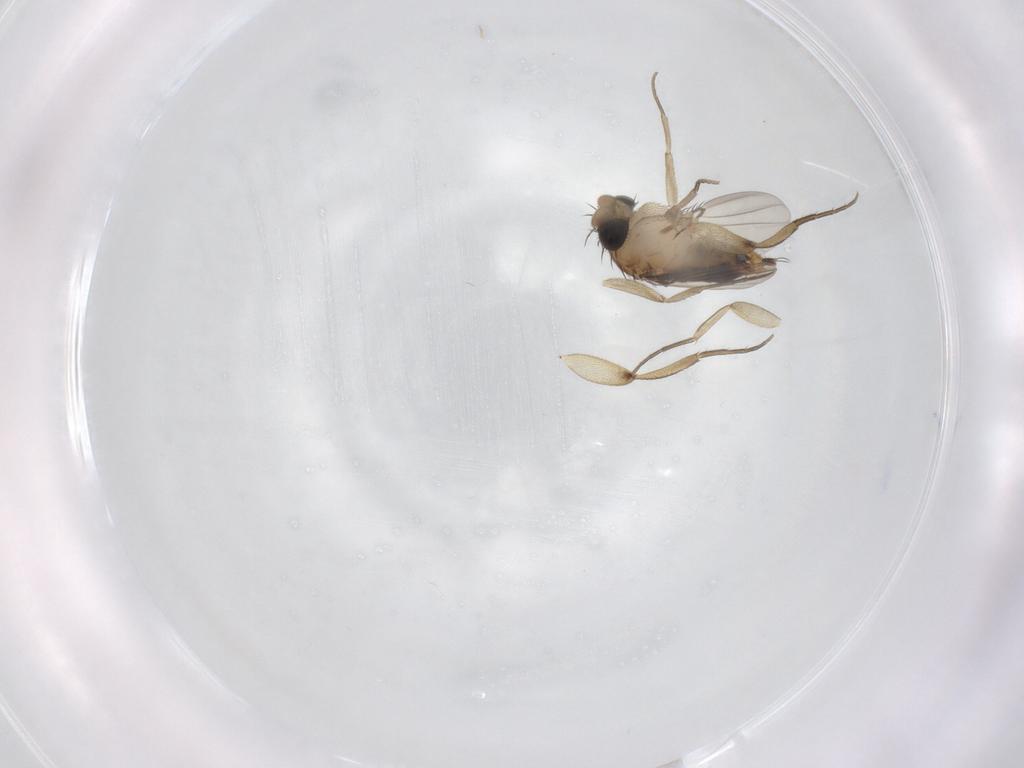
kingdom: Animalia
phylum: Arthropoda
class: Insecta
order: Diptera
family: Phoridae
